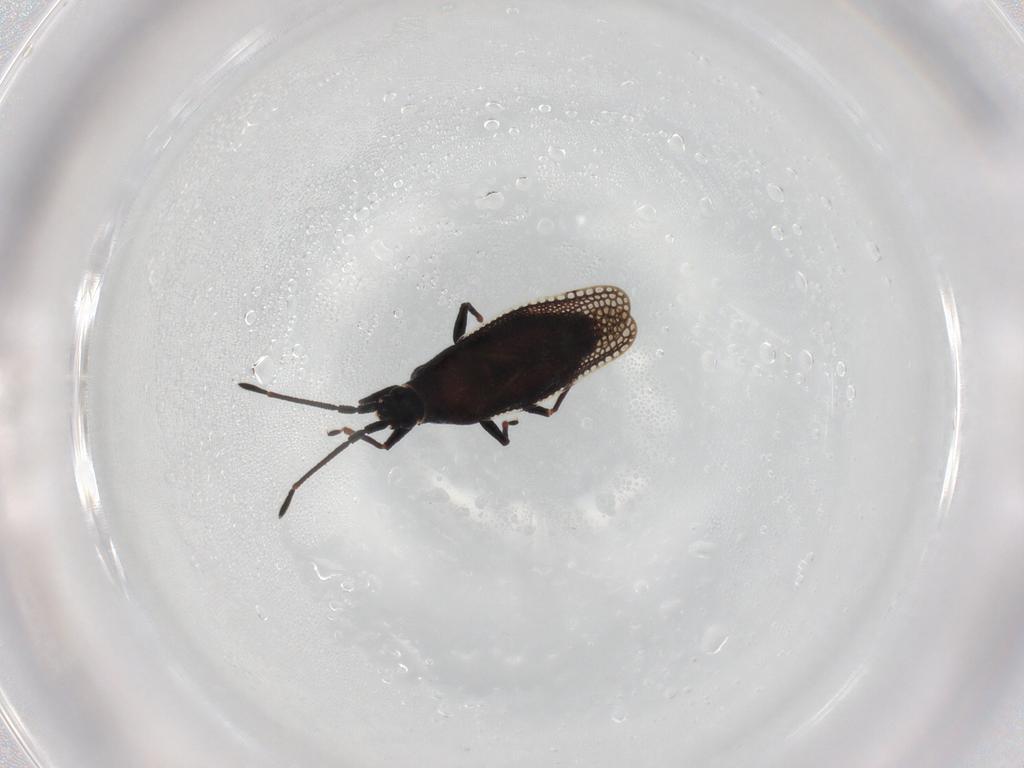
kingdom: Animalia
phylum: Arthropoda
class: Insecta
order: Hemiptera
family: Tingidae
